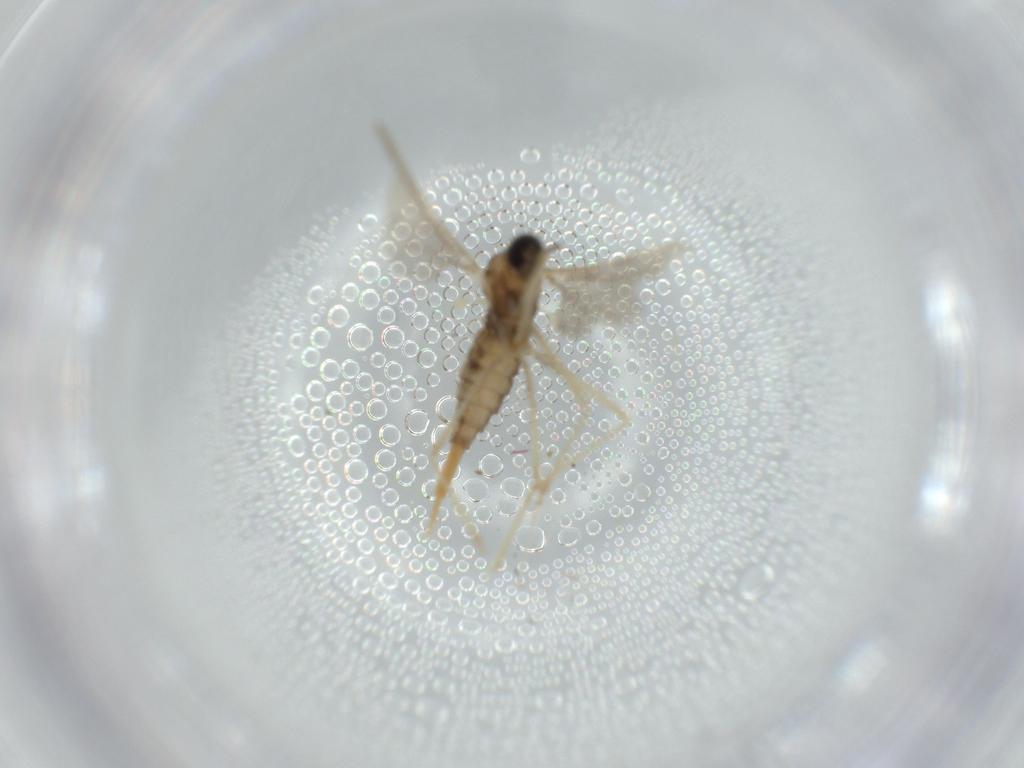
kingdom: Animalia
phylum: Arthropoda
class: Insecta
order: Diptera
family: Cecidomyiidae
